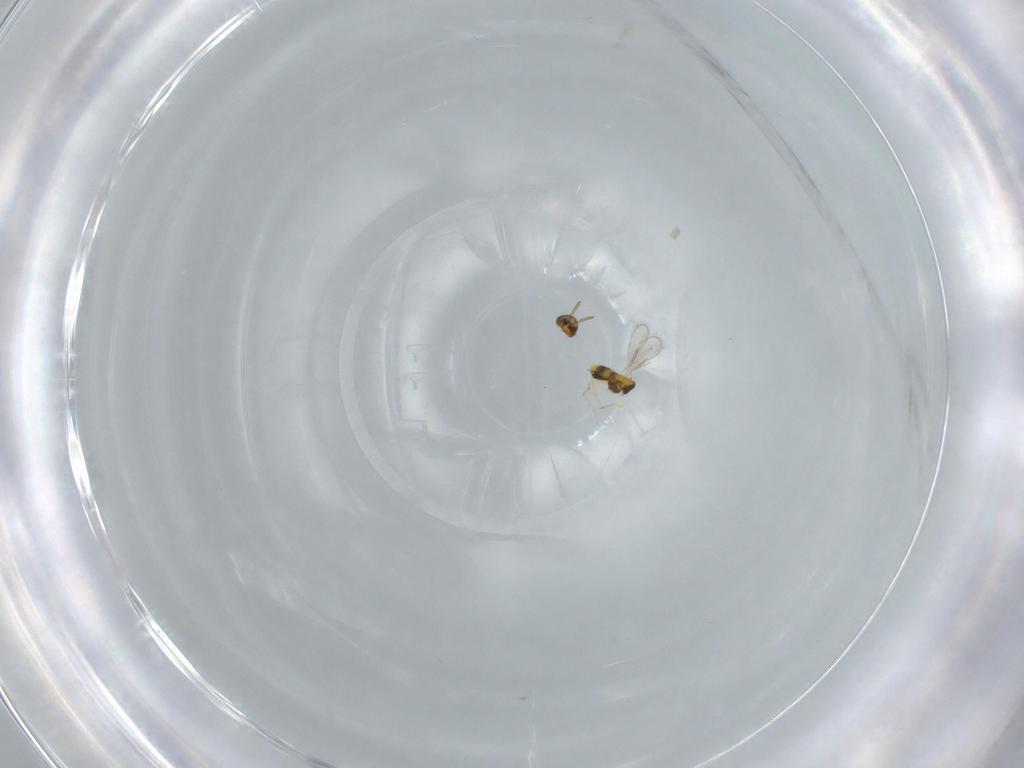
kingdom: Animalia
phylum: Arthropoda
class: Insecta
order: Hymenoptera
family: Aphelinidae
